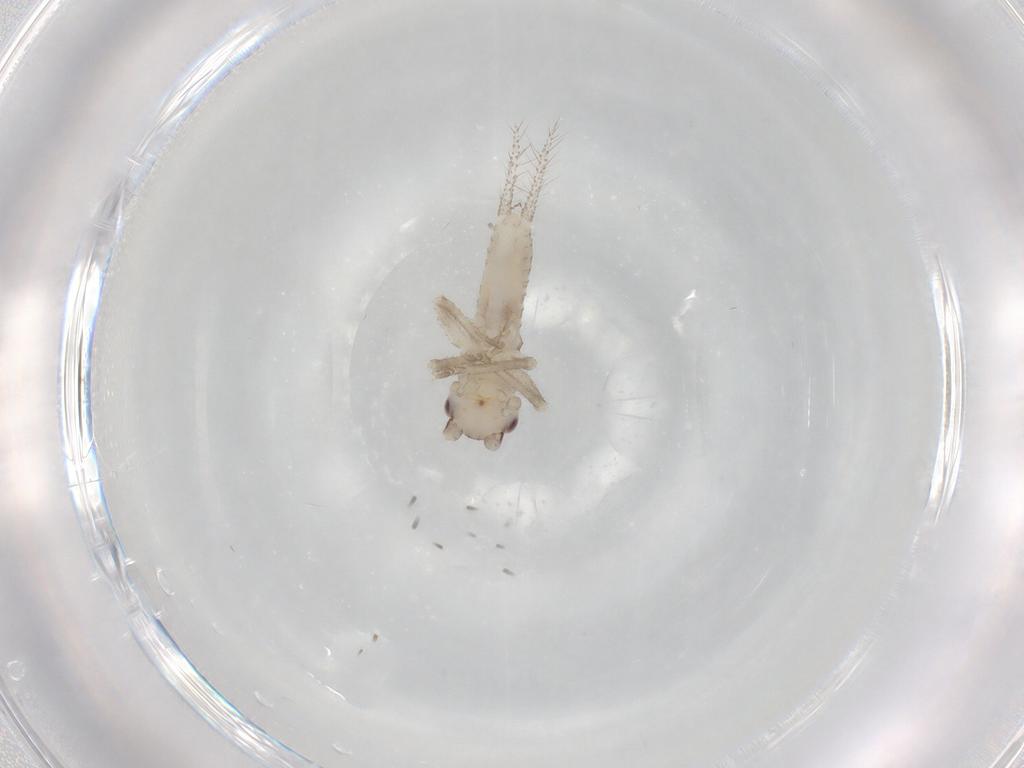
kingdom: Animalia
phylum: Arthropoda
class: Insecta
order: Orthoptera
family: Gryllidae
